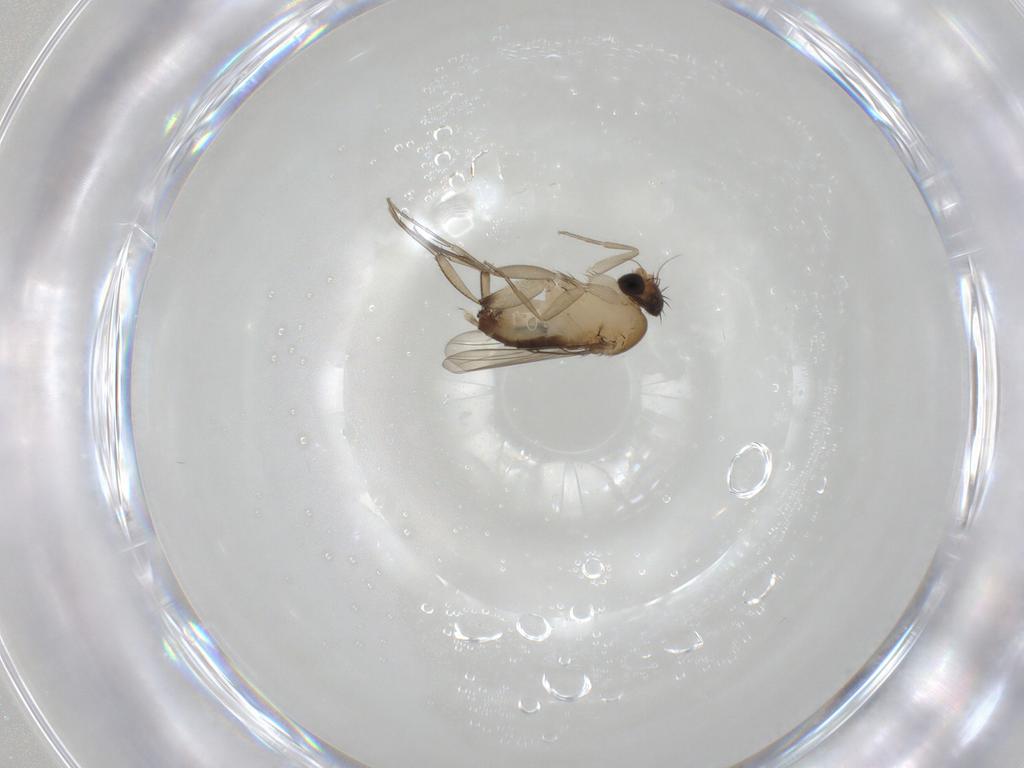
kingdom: Animalia
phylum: Arthropoda
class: Insecta
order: Diptera
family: Phoridae
